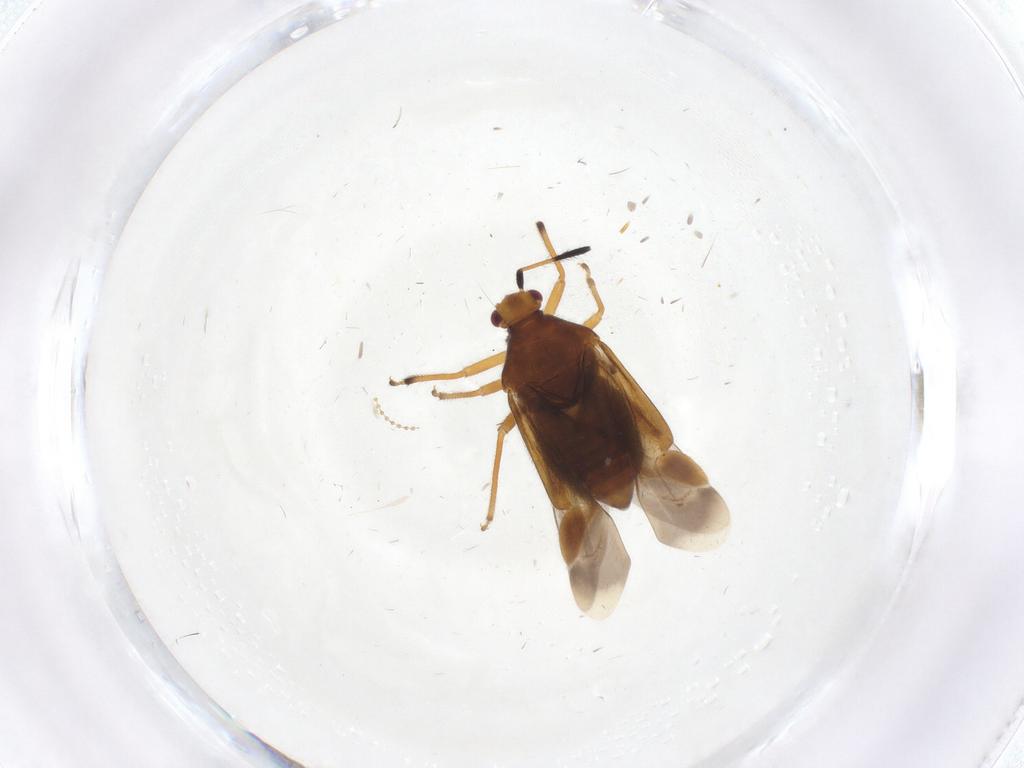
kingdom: Animalia
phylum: Arthropoda
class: Insecta
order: Hemiptera
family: Miridae
